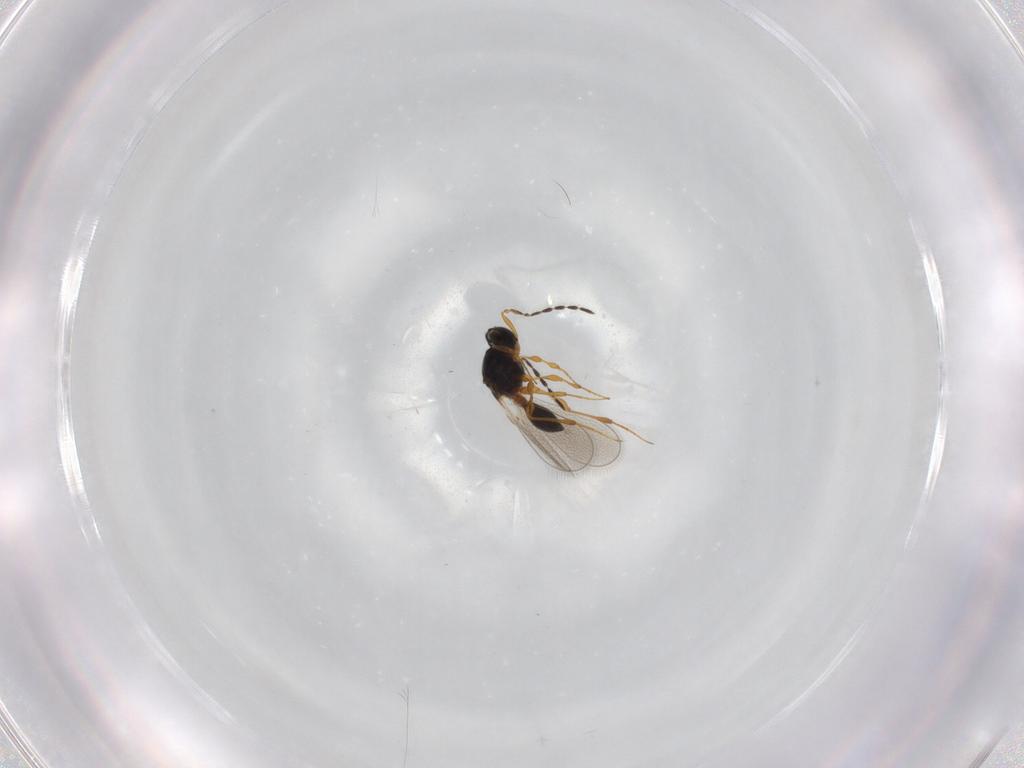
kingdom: Animalia
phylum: Arthropoda
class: Insecta
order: Hymenoptera
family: Platygastridae
